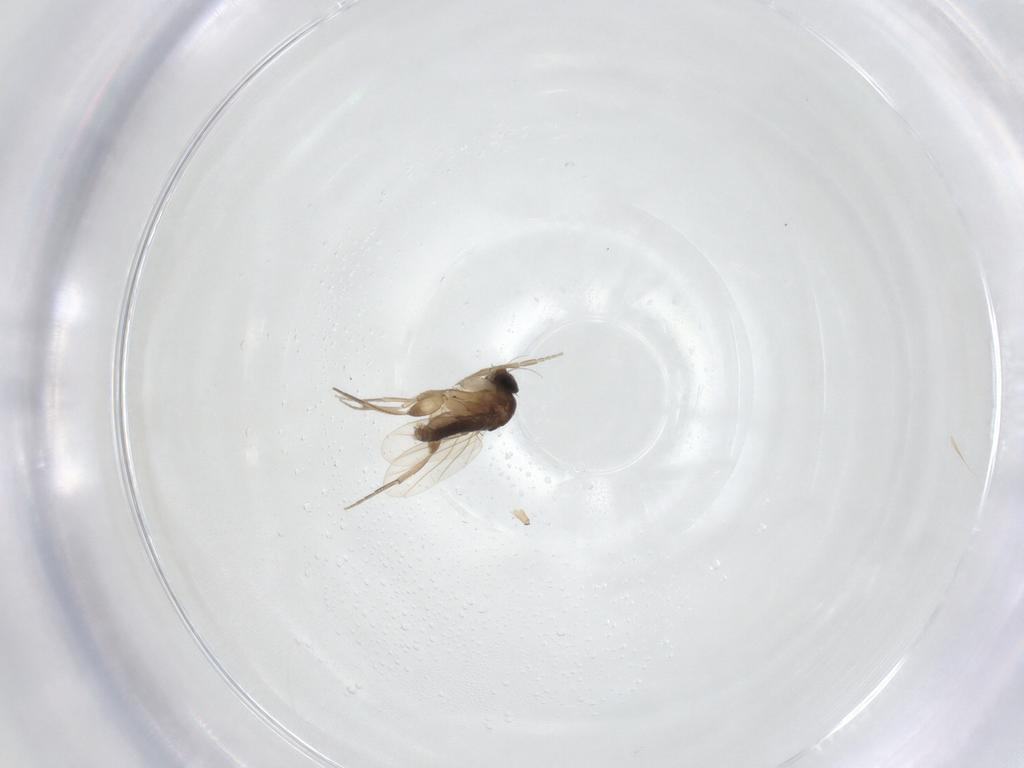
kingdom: Animalia
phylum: Arthropoda
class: Insecta
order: Diptera
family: Phoridae
